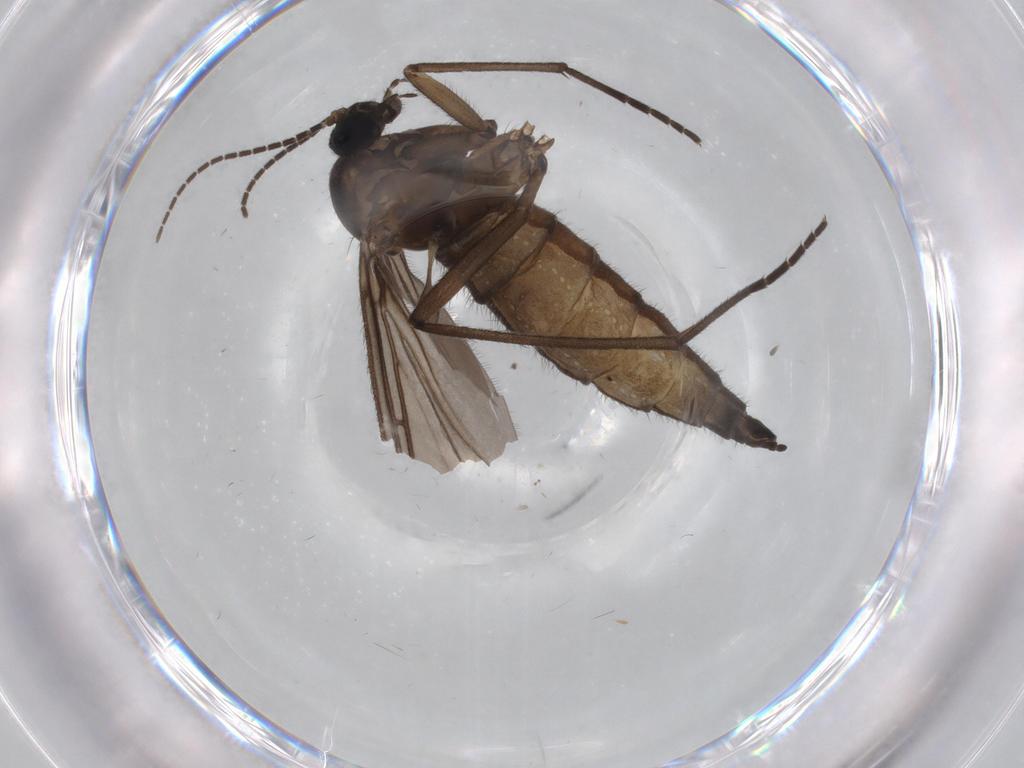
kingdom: Animalia
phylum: Arthropoda
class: Insecta
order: Diptera
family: Sciaridae
